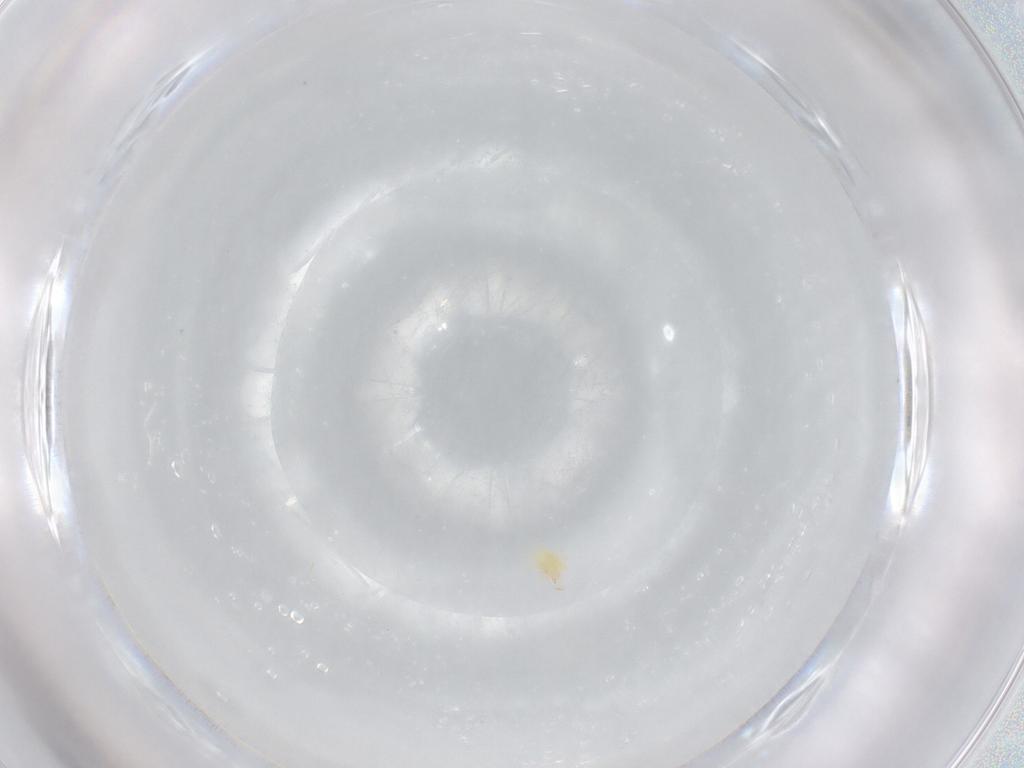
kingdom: Animalia
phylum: Arthropoda
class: Arachnida
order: Trombidiformes
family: Cunaxidae
